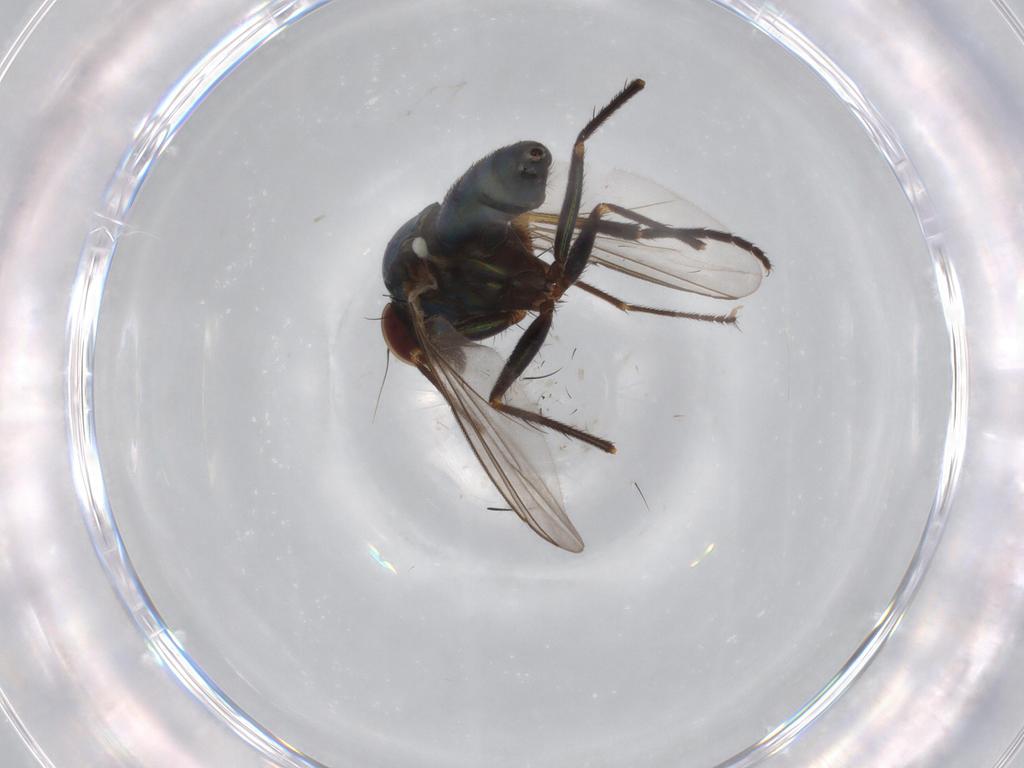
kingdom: Animalia
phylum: Arthropoda
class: Insecta
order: Diptera
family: Dolichopodidae
